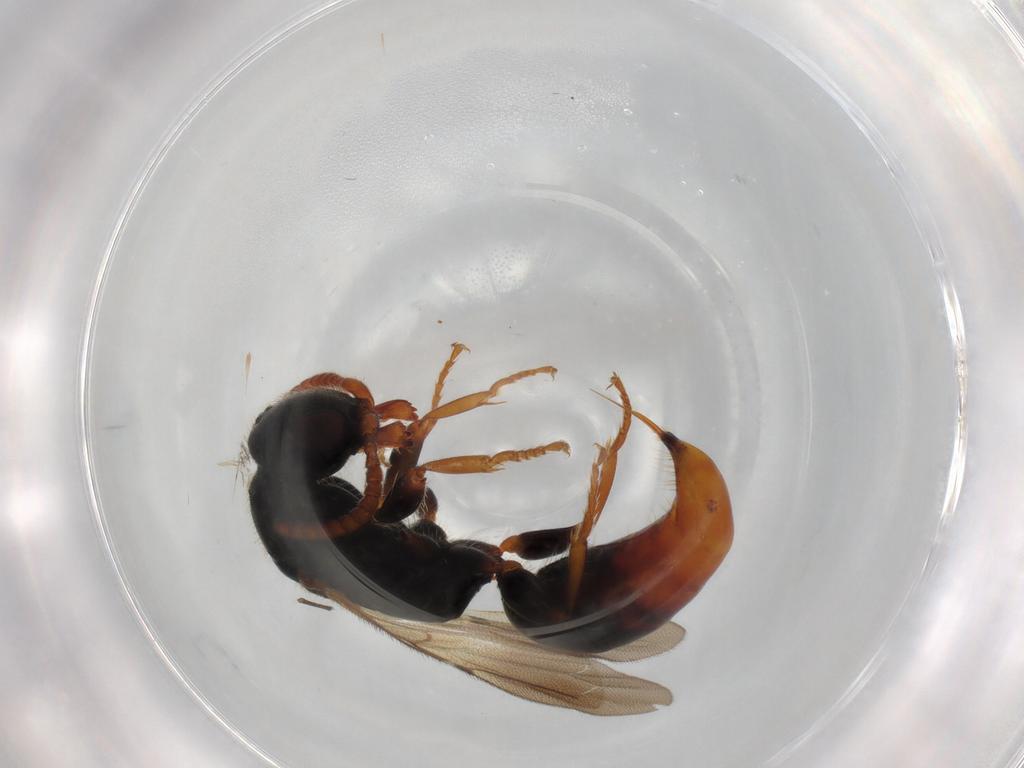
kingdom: Animalia
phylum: Arthropoda
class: Insecta
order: Hymenoptera
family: Bethylidae
